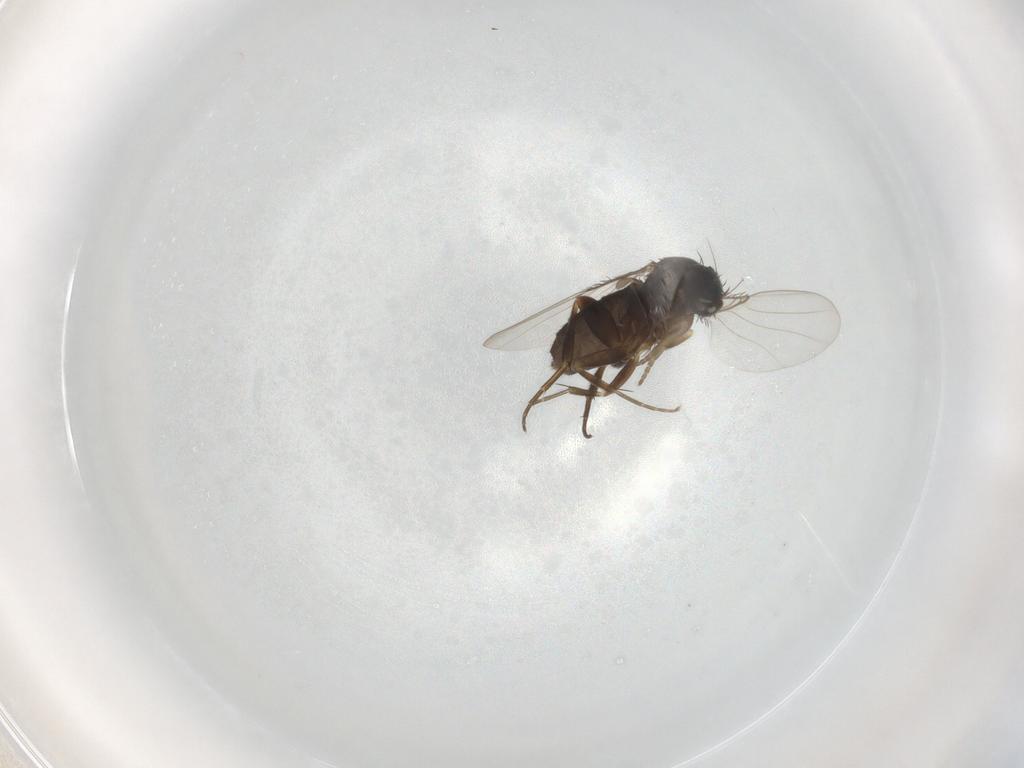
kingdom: Animalia
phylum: Arthropoda
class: Insecta
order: Diptera
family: Phoridae
